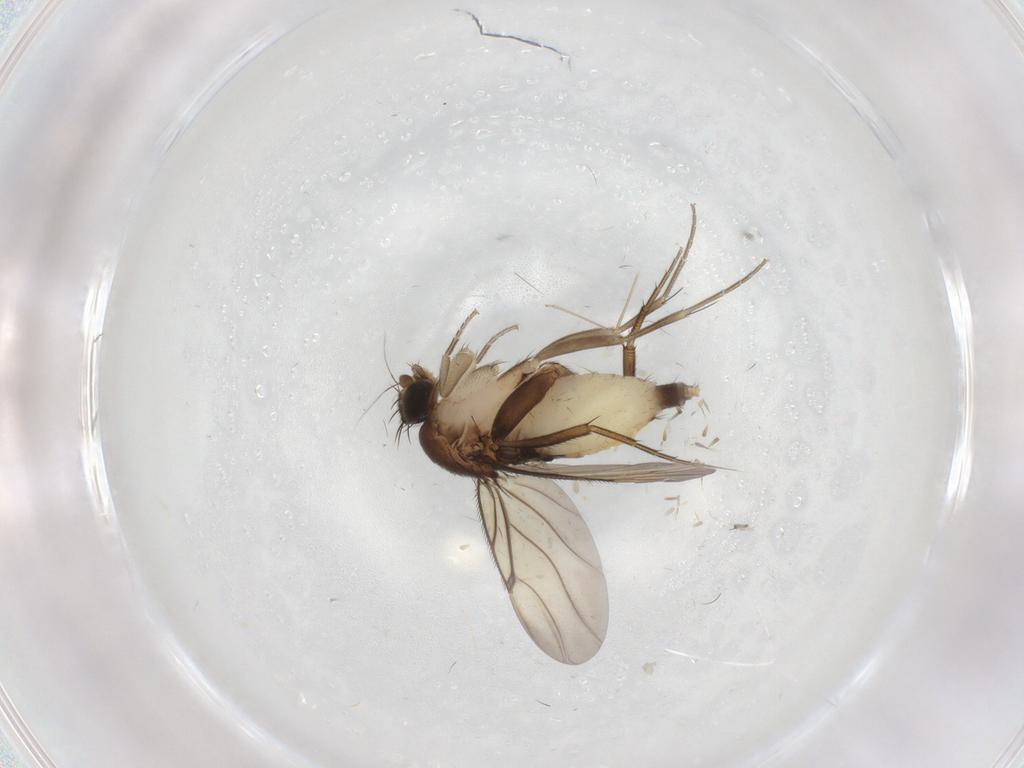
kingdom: Animalia
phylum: Arthropoda
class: Insecta
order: Diptera
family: Phoridae
